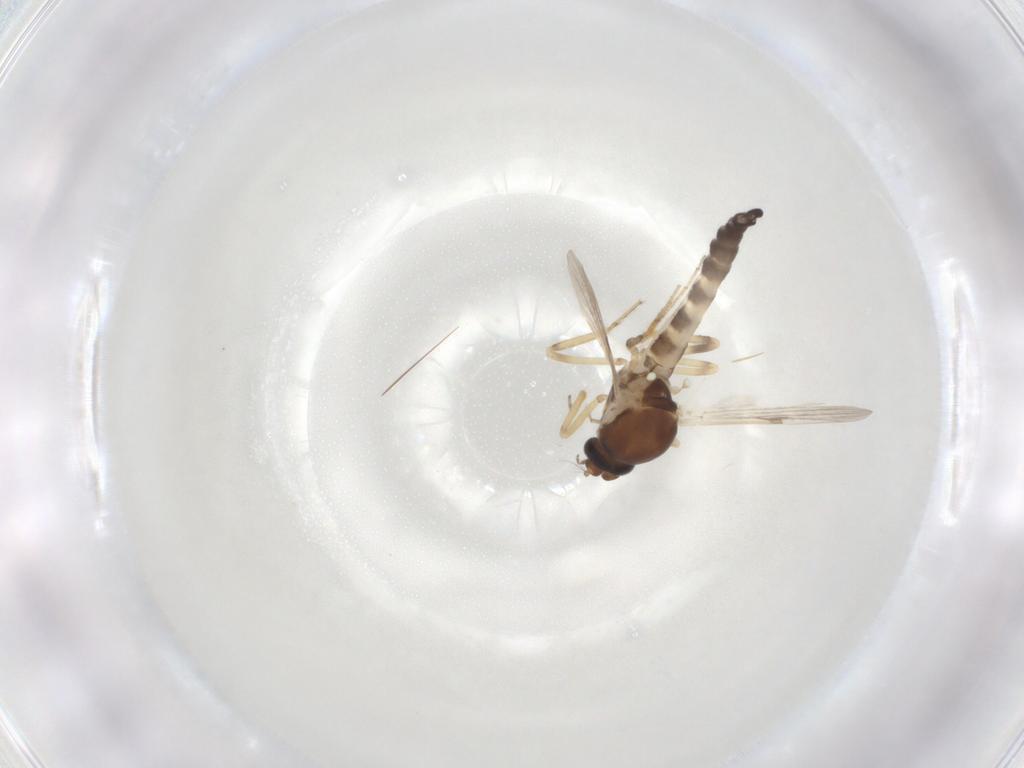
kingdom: Animalia
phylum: Arthropoda
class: Insecta
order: Diptera
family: Ceratopogonidae
